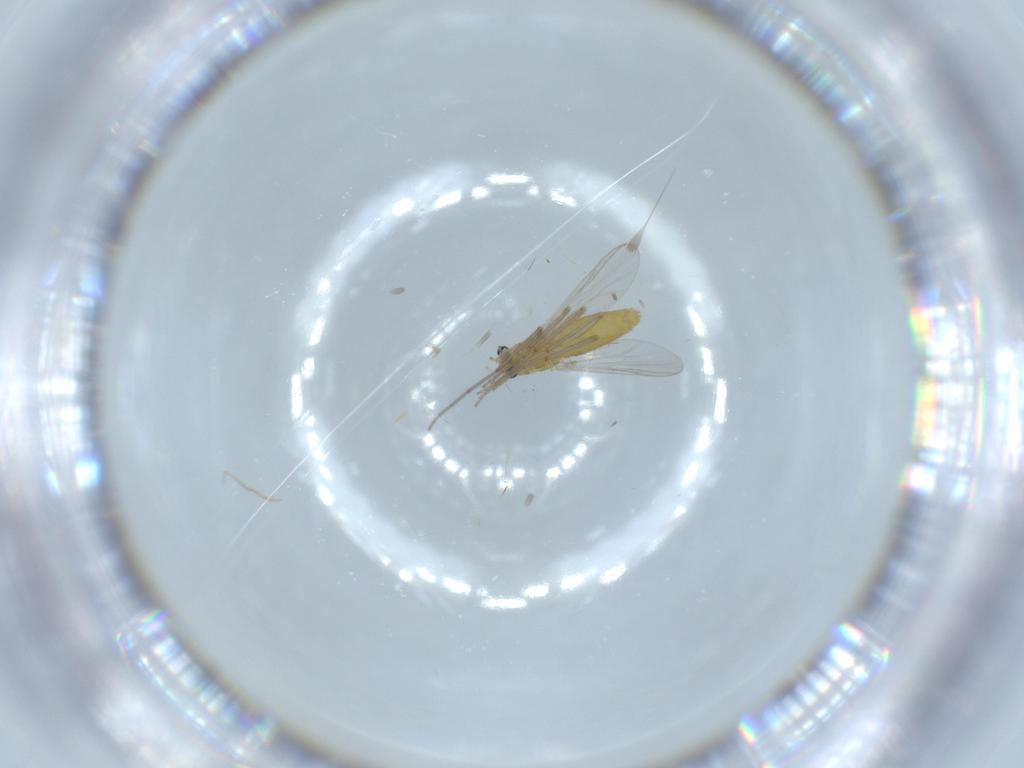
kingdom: Animalia
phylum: Arthropoda
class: Insecta
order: Diptera
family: Chironomidae
